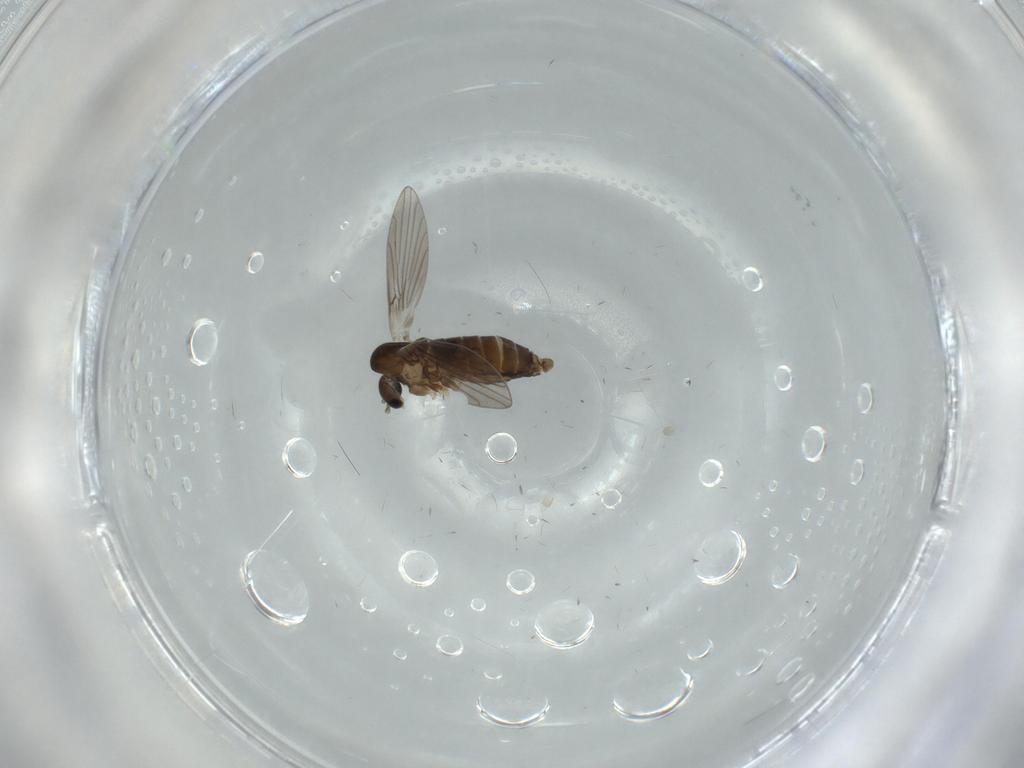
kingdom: Animalia
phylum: Arthropoda
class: Insecta
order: Diptera
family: Cecidomyiidae
